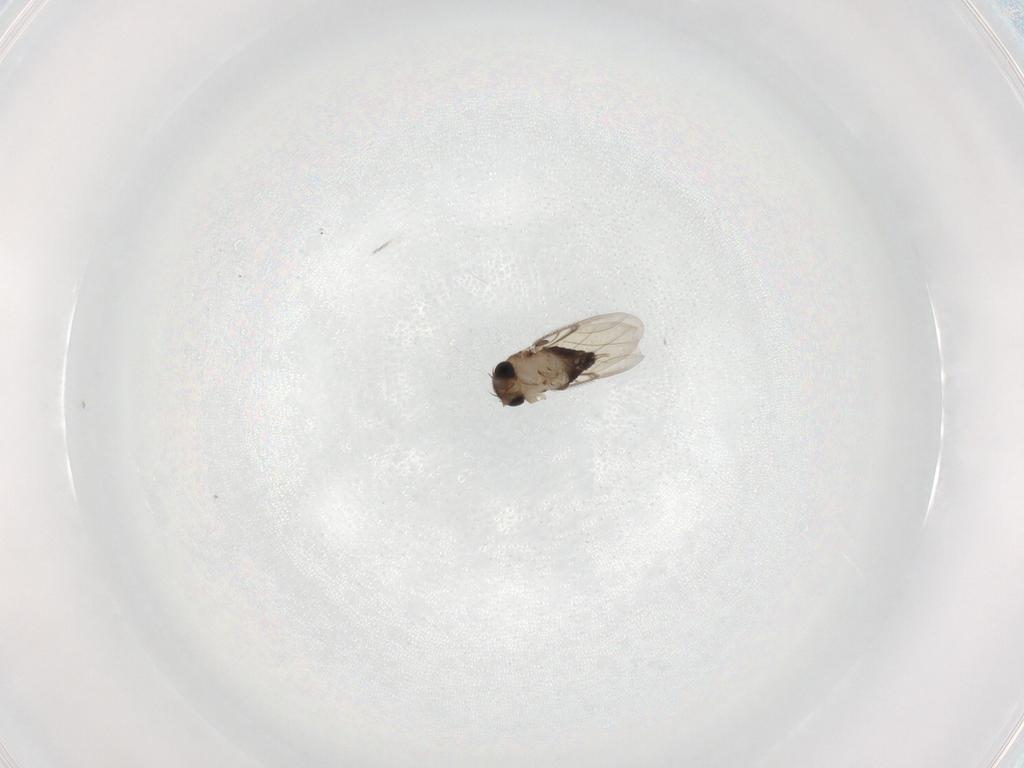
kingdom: Animalia
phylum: Arthropoda
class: Insecta
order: Diptera
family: Phoridae
